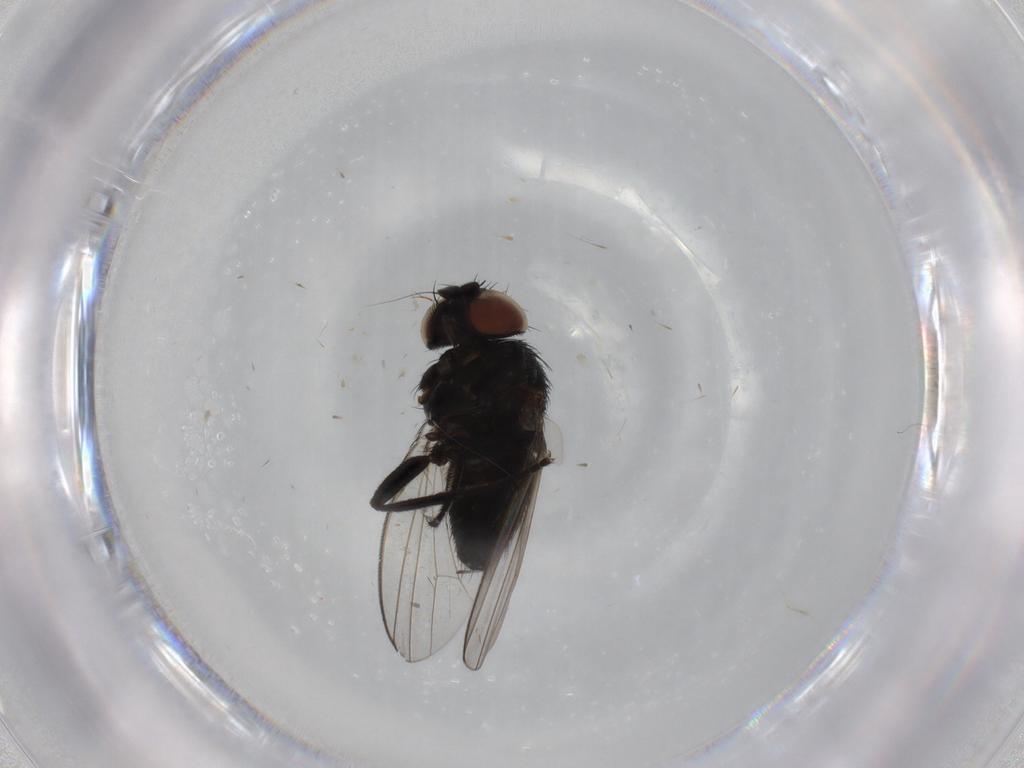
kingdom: Animalia
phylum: Arthropoda
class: Insecta
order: Diptera
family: Milichiidae
